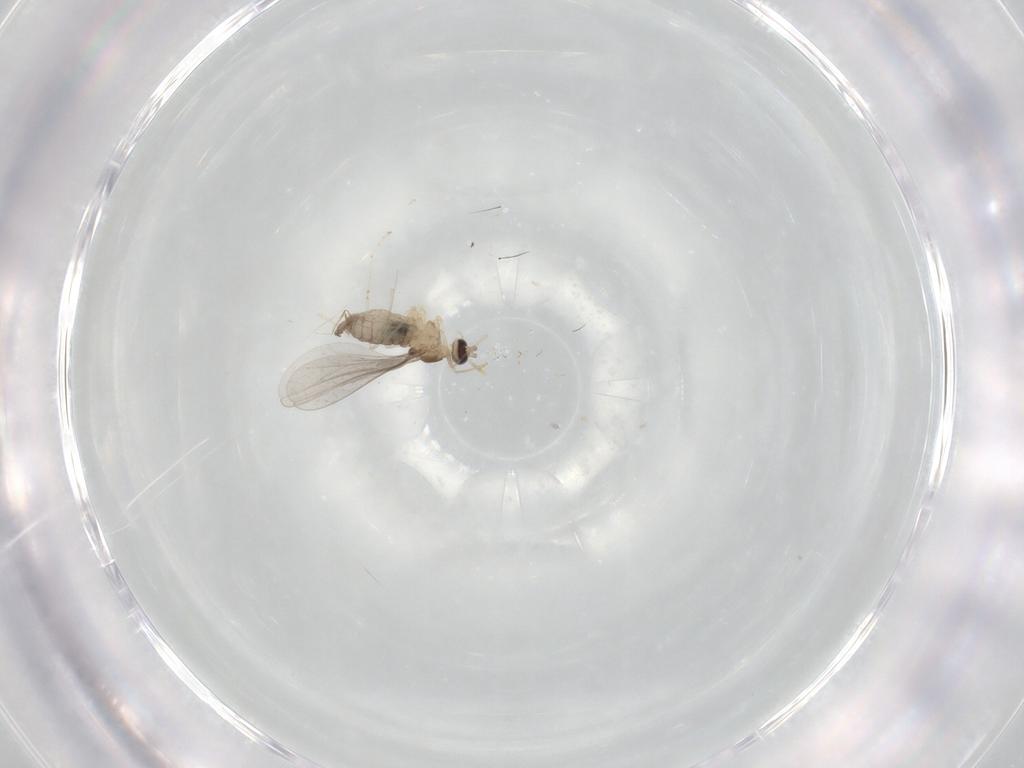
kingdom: Animalia
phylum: Arthropoda
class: Insecta
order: Diptera
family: Cecidomyiidae
